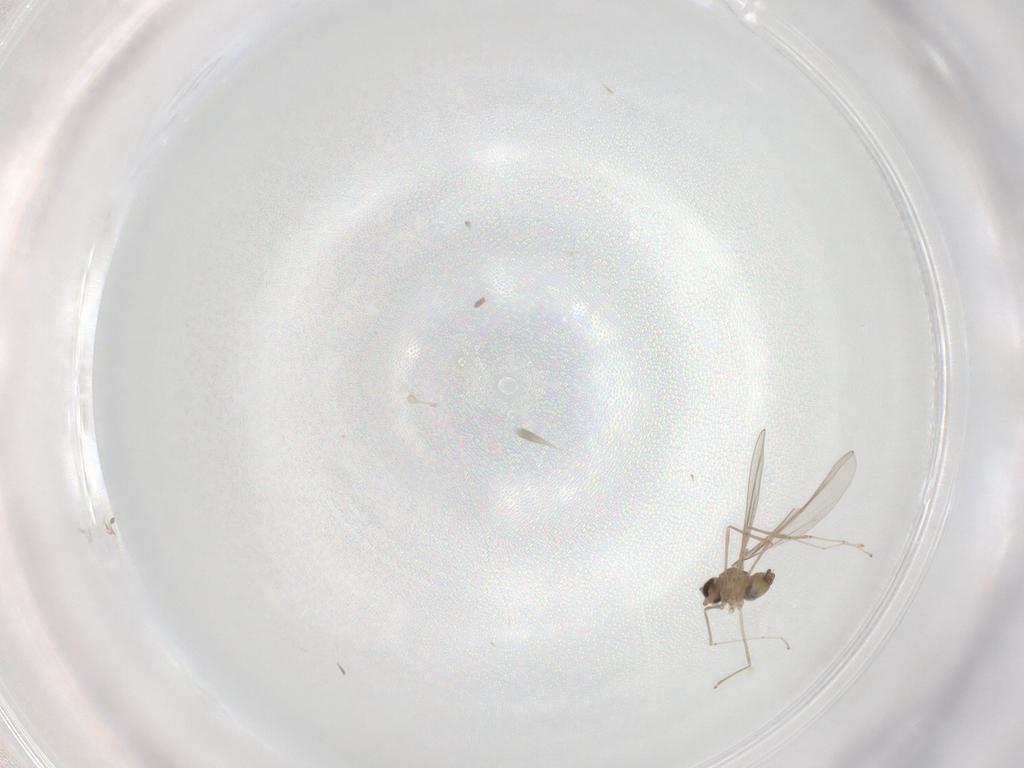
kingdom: Animalia
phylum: Arthropoda
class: Insecta
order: Diptera
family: Cecidomyiidae
